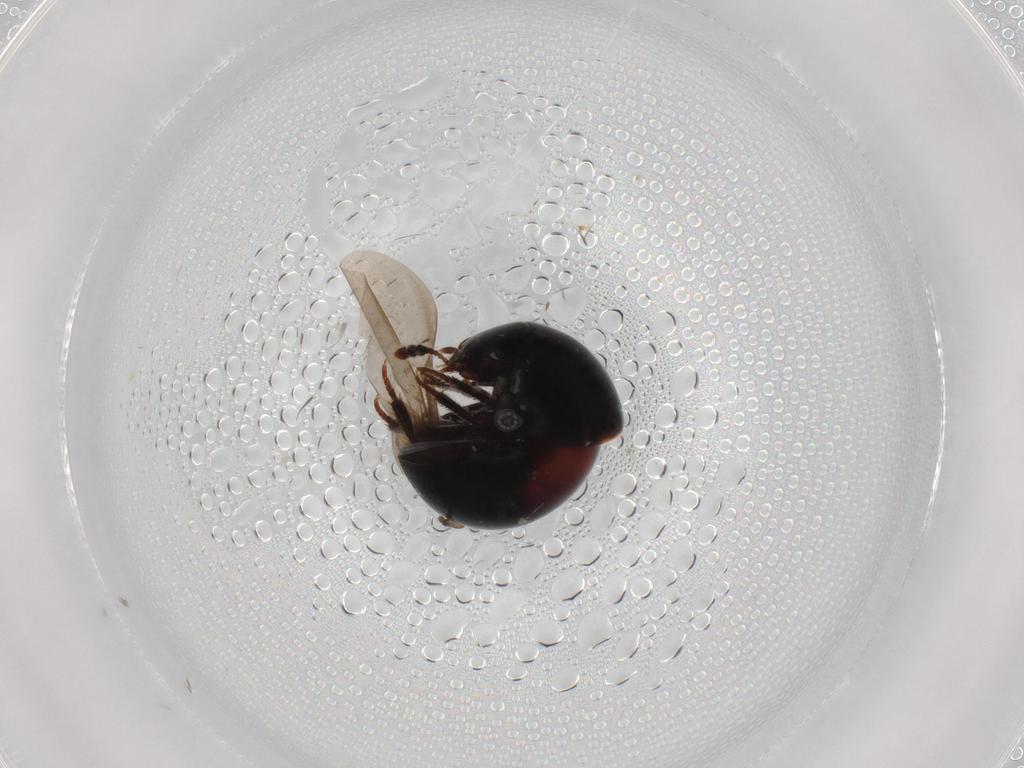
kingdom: Animalia
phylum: Arthropoda
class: Insecta
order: Coleoptera
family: Leiodidae
